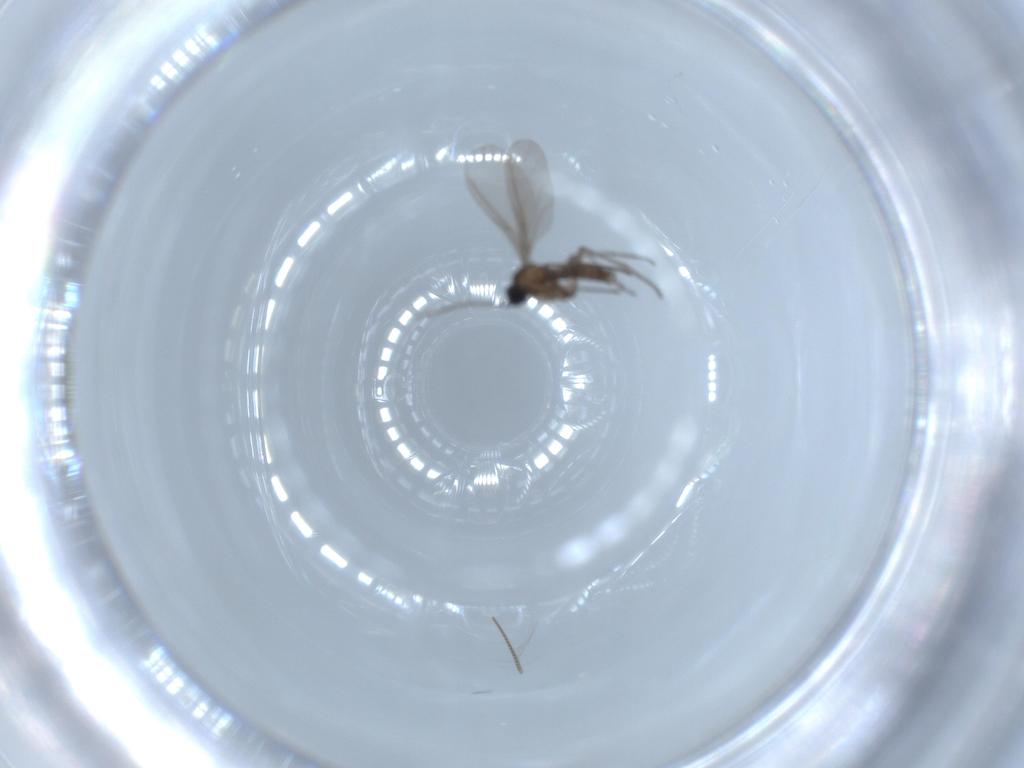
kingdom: Animalia
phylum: Arthropoda
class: Insecta
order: Diptera
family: Sciaridae
